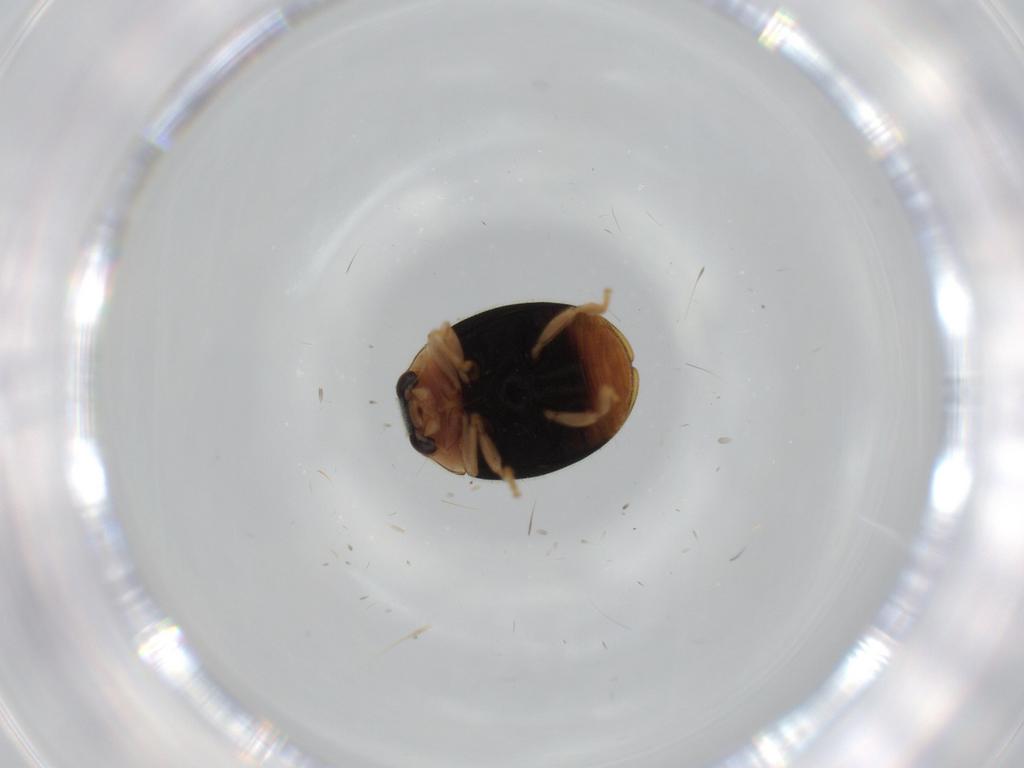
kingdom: Animalia
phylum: Arthropoda
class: Insecta
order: Coleoptera
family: Coccinellidae
